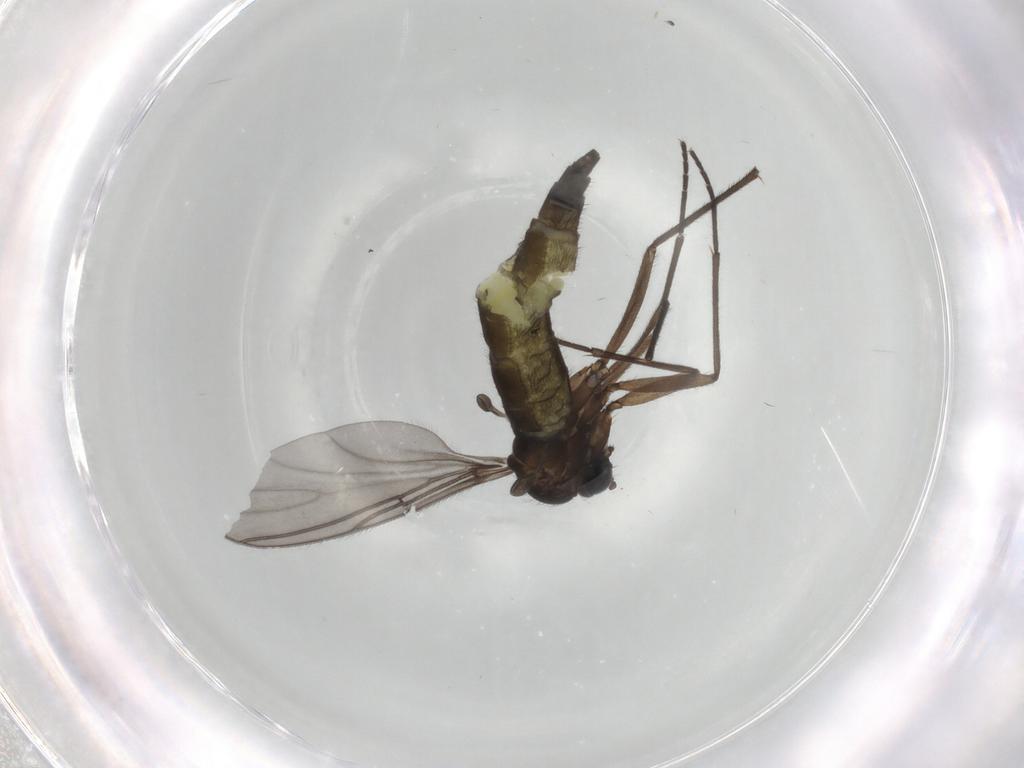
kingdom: Animalia
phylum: Arthropoda
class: Insecta
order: Diptera
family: Sciaridae
